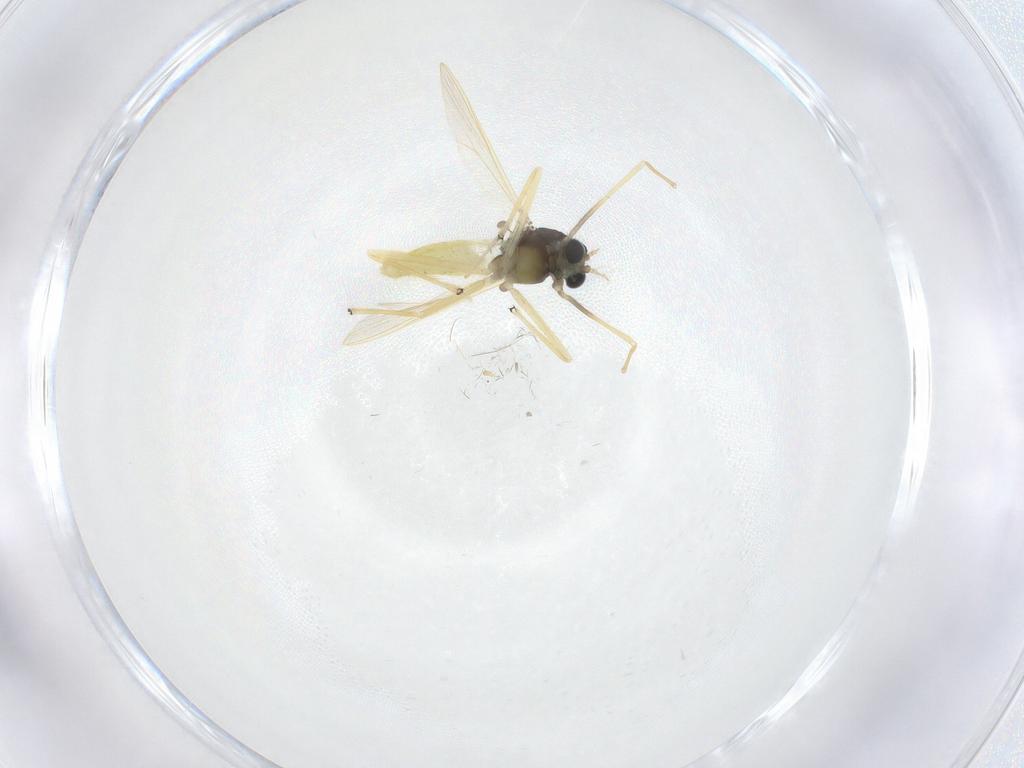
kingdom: Animalia
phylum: Arthropoda
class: Insecta
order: Diptera
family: Chironomidae
